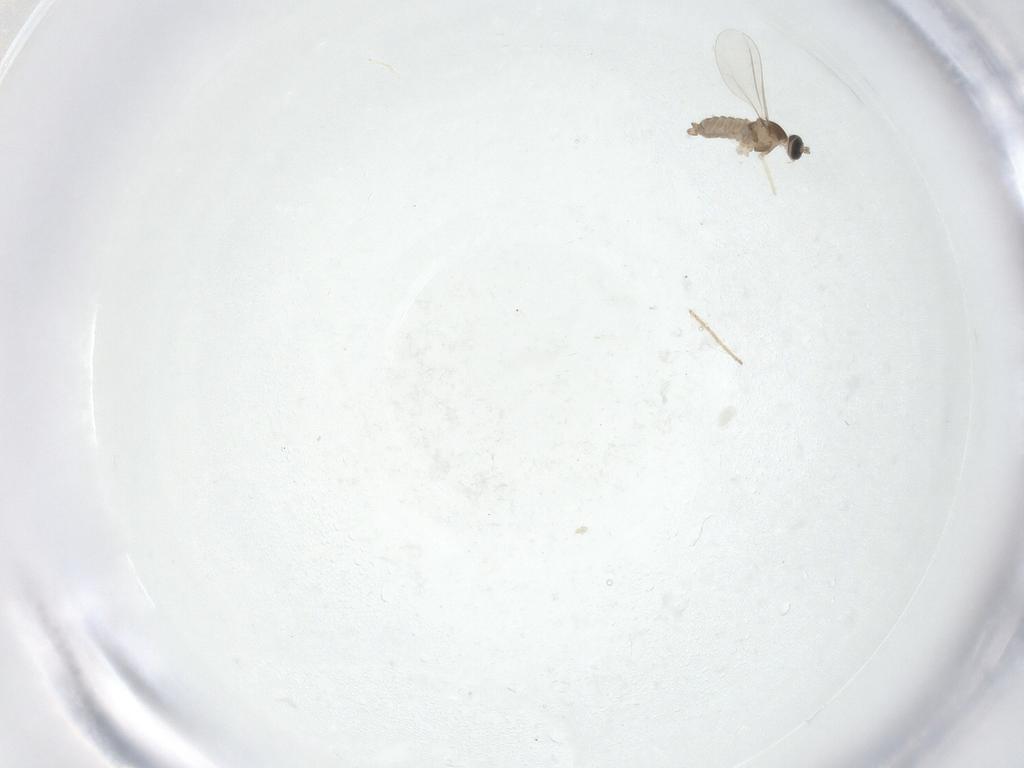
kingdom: Animalia
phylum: Arthropoda
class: Insecta
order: Diptera
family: Cecidomyiidae
